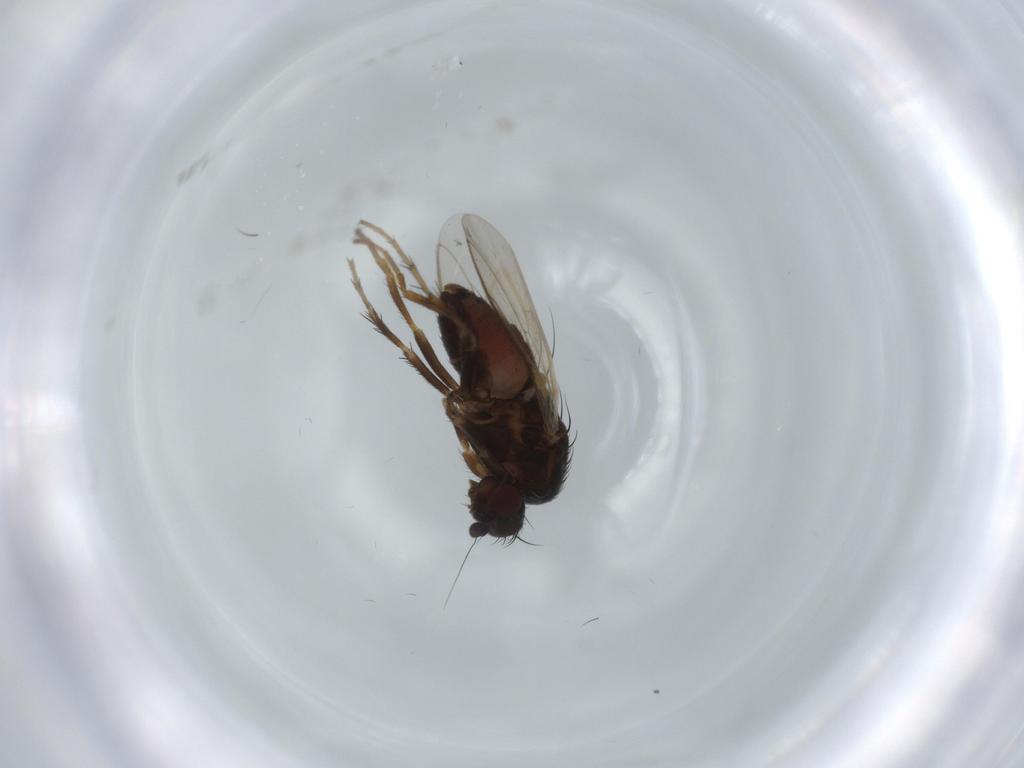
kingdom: Animalia
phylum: Arthropoda
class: Insecta
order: Diptera
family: Sphaeroceridae
